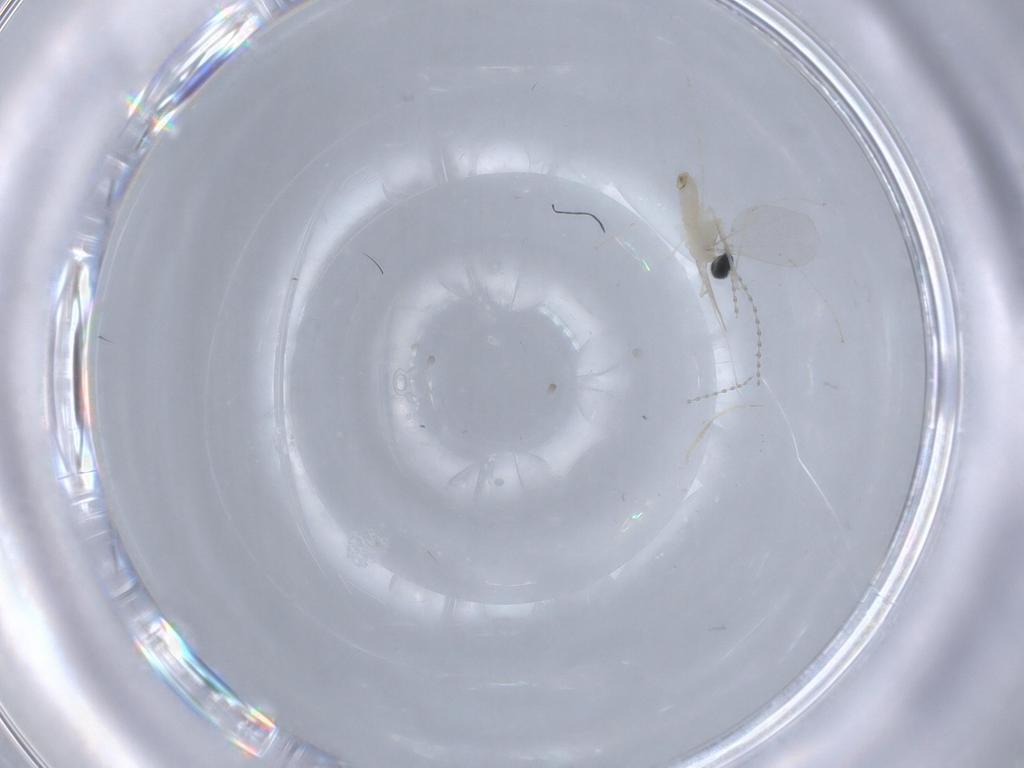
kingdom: Animalia
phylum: Arthropoda
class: Insecta
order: Diptera
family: Cecidomyiidae
